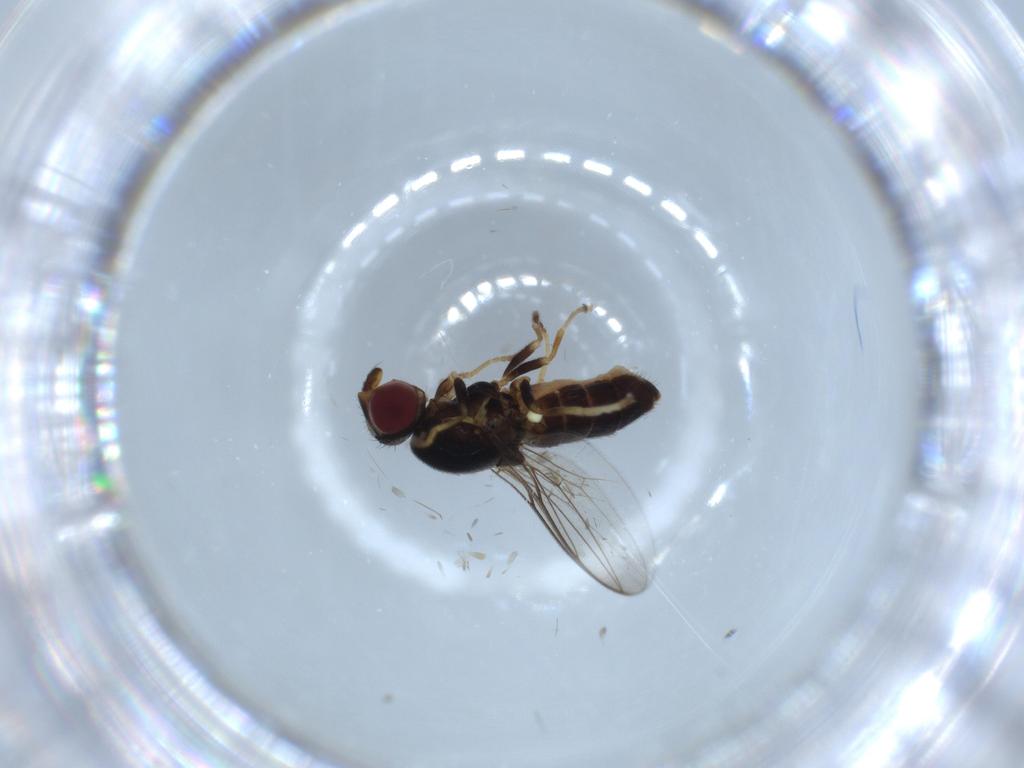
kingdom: Animalia
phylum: Arthropoda
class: Insecta
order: Diptera
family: Chloropidae
